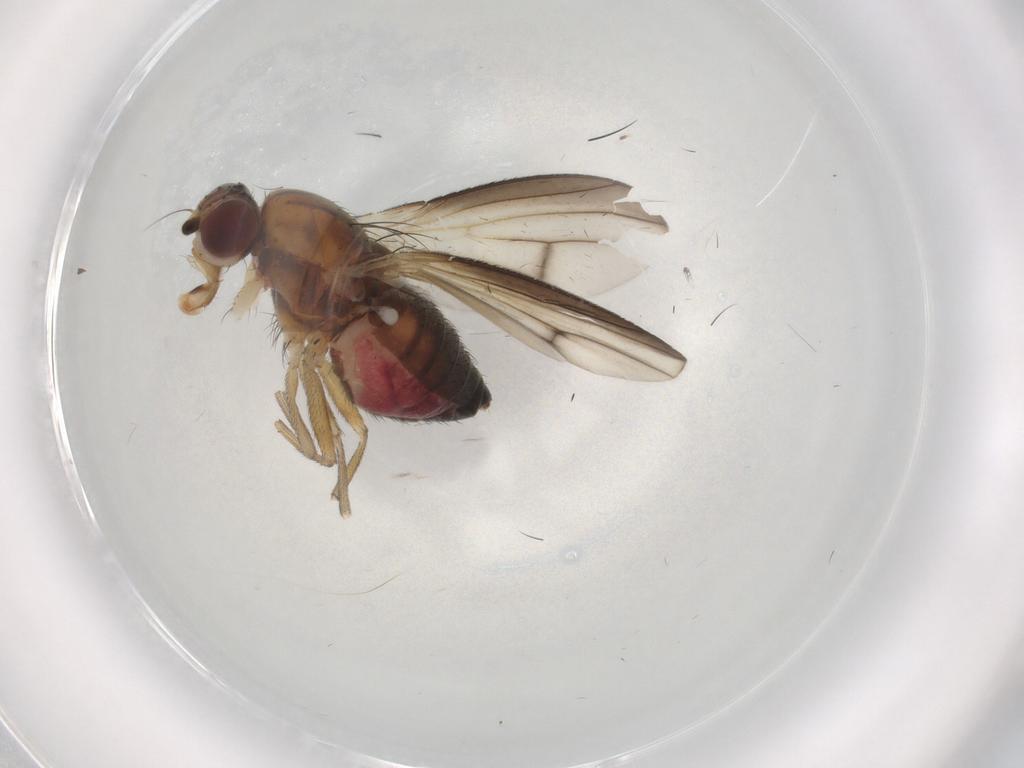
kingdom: Animalia
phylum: Arthropoda
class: Insecta
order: Diptera
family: Heleomyzidae
